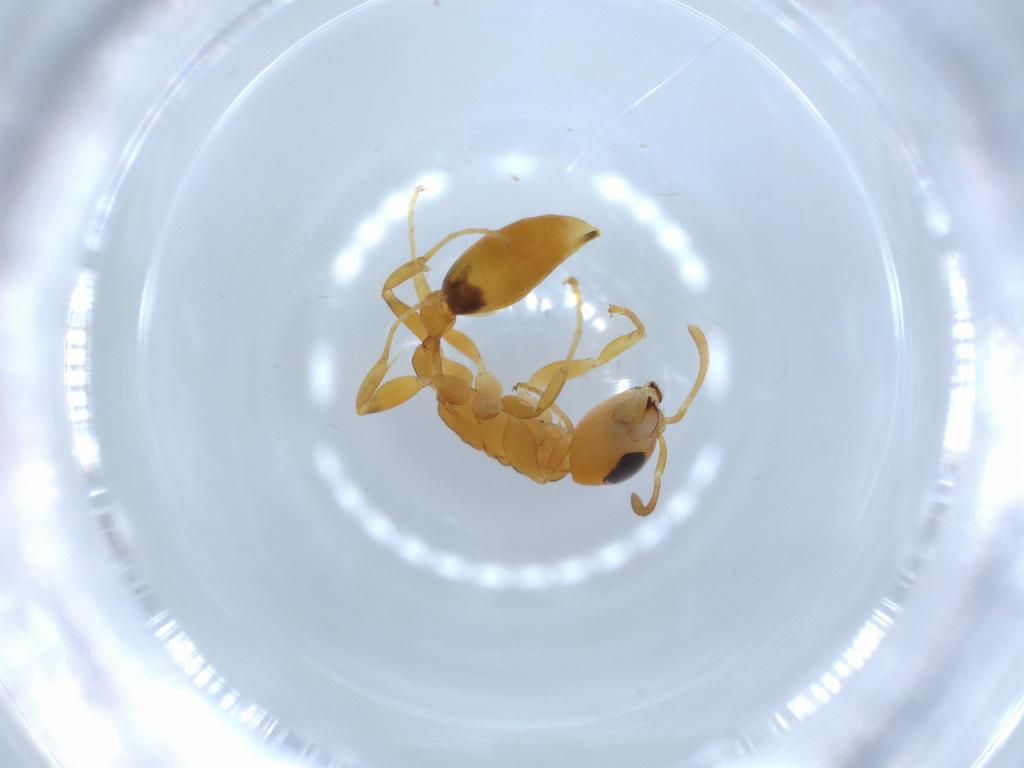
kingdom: Animalia
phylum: Arthropoda
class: Insecta
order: Hymenoptera
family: Formicidae
